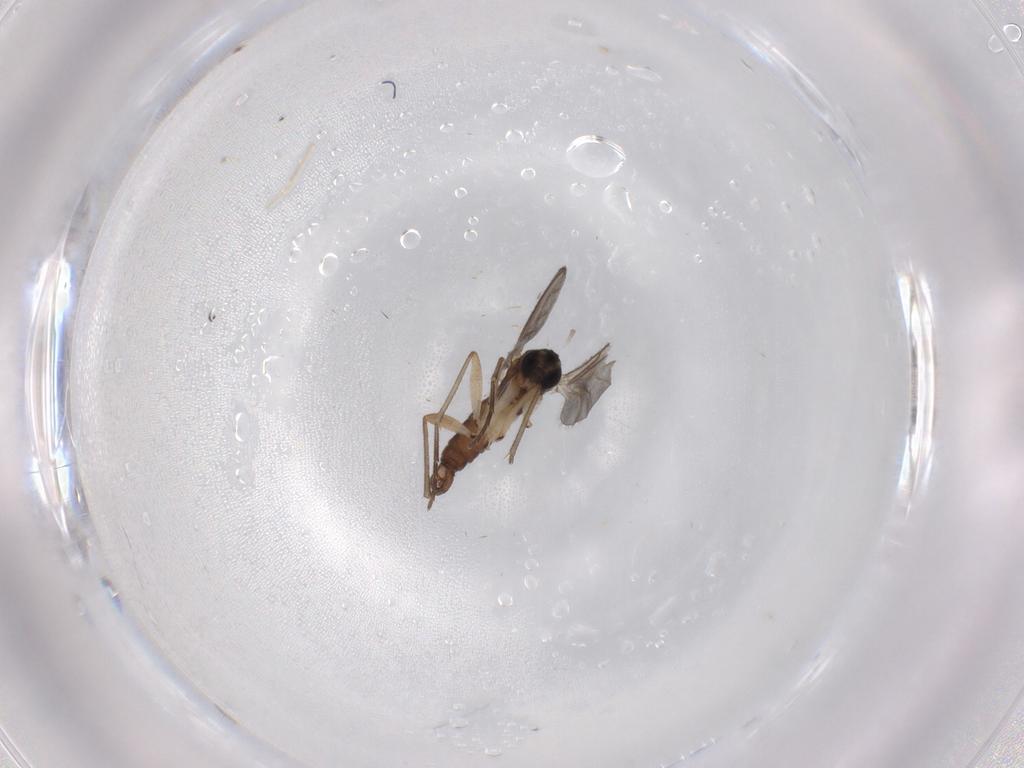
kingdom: Animalia
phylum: Arthropoda
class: Insecta
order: Diptera
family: Sciaridae
